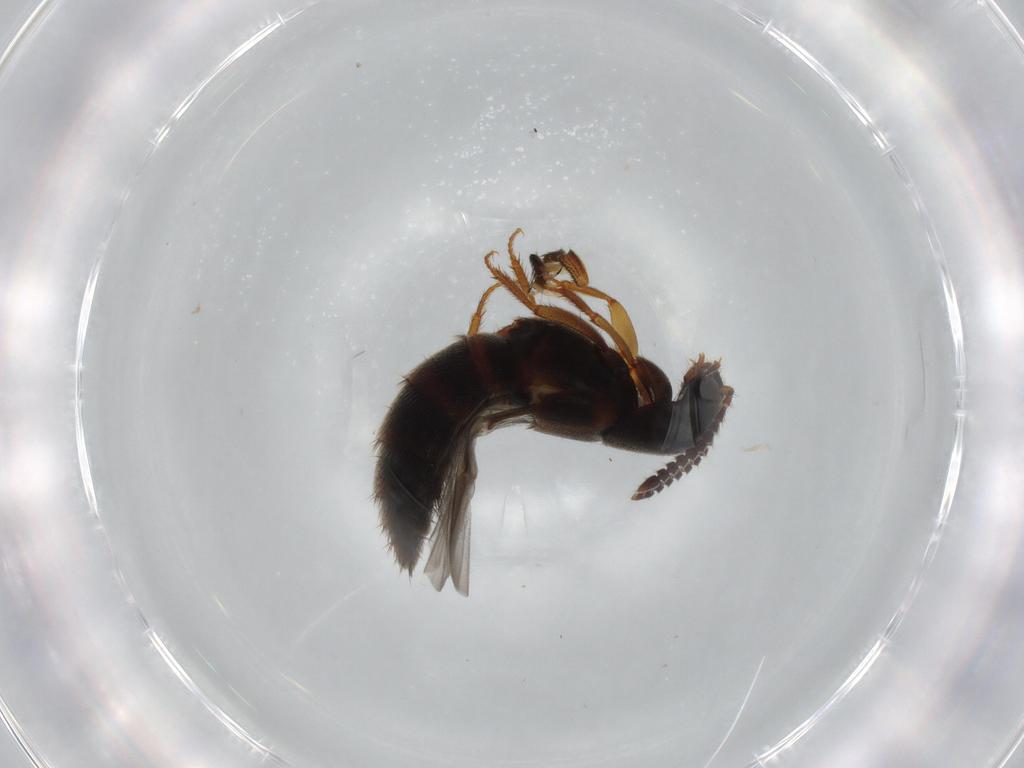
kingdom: Animalia
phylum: Arthropoda
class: Insecta
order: Coleoptera
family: Staphylinidae
